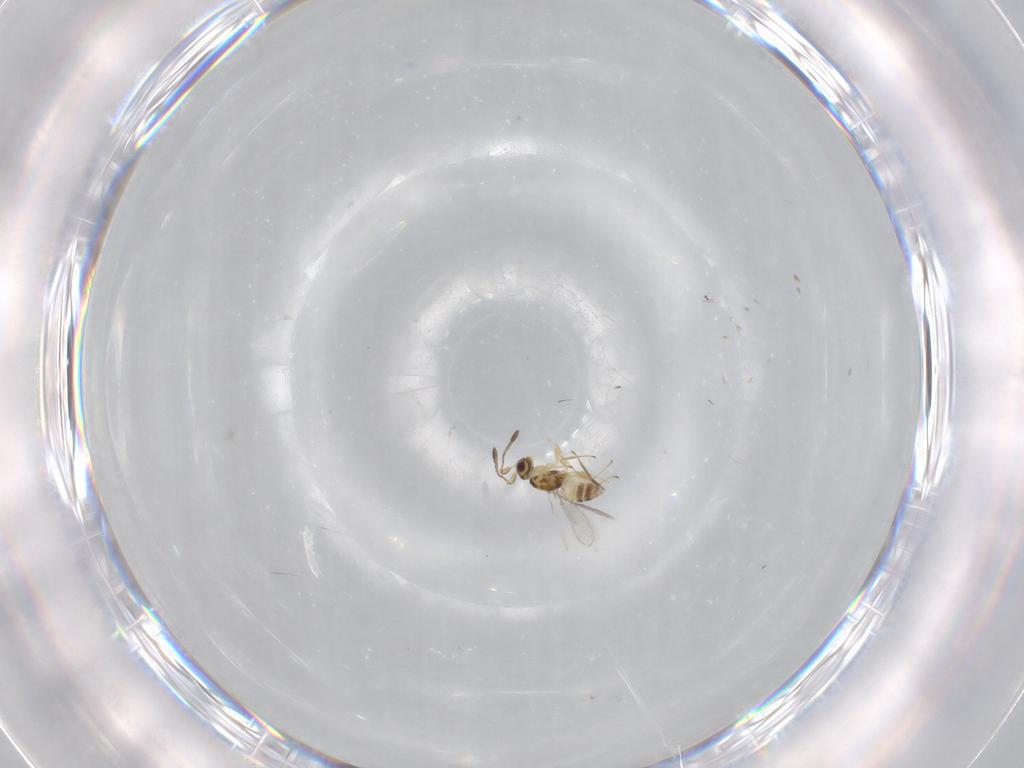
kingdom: Animalia
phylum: Arthropoda
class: Insecta
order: Hymenoptera
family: Mymaridae
